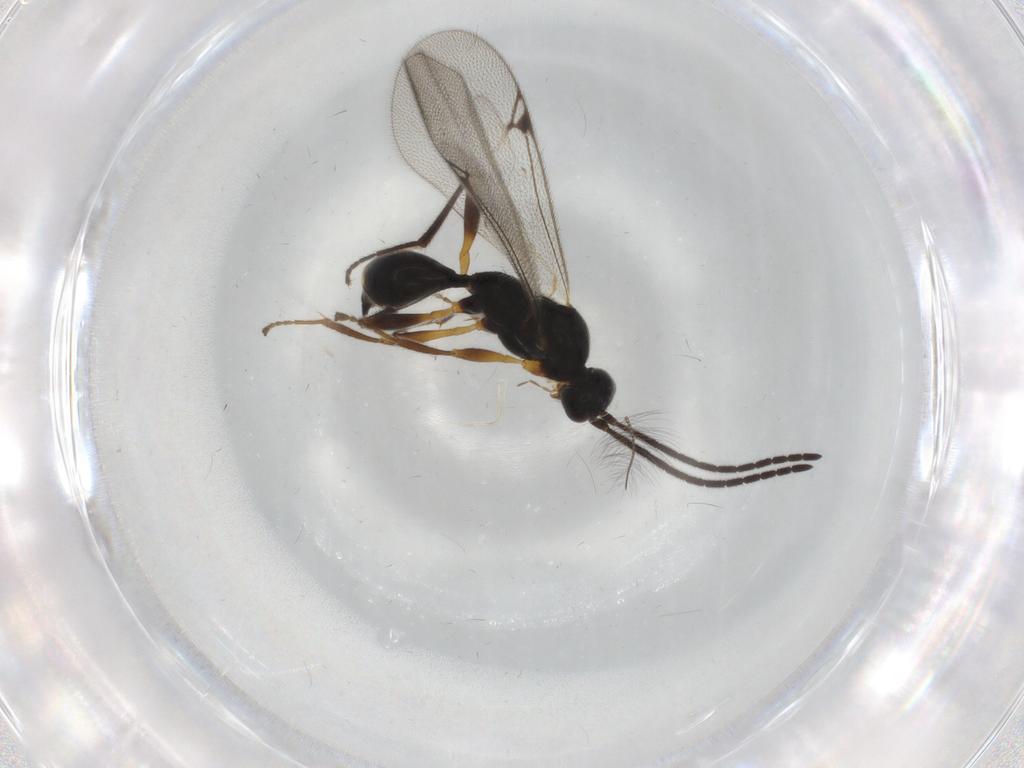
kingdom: Animalia
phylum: Arthropoda
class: Insecta
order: Hymenoptera
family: Proctotrupidae
